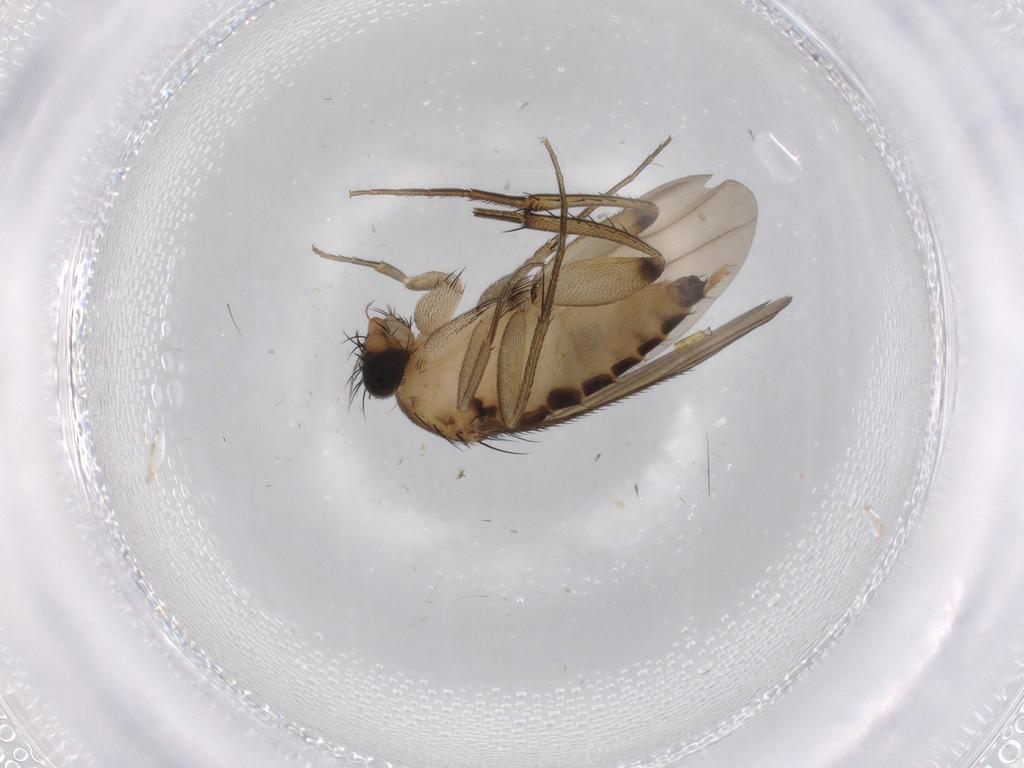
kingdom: Animalia
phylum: Arthropoda
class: Insecta
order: Diptera
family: Phoridae
